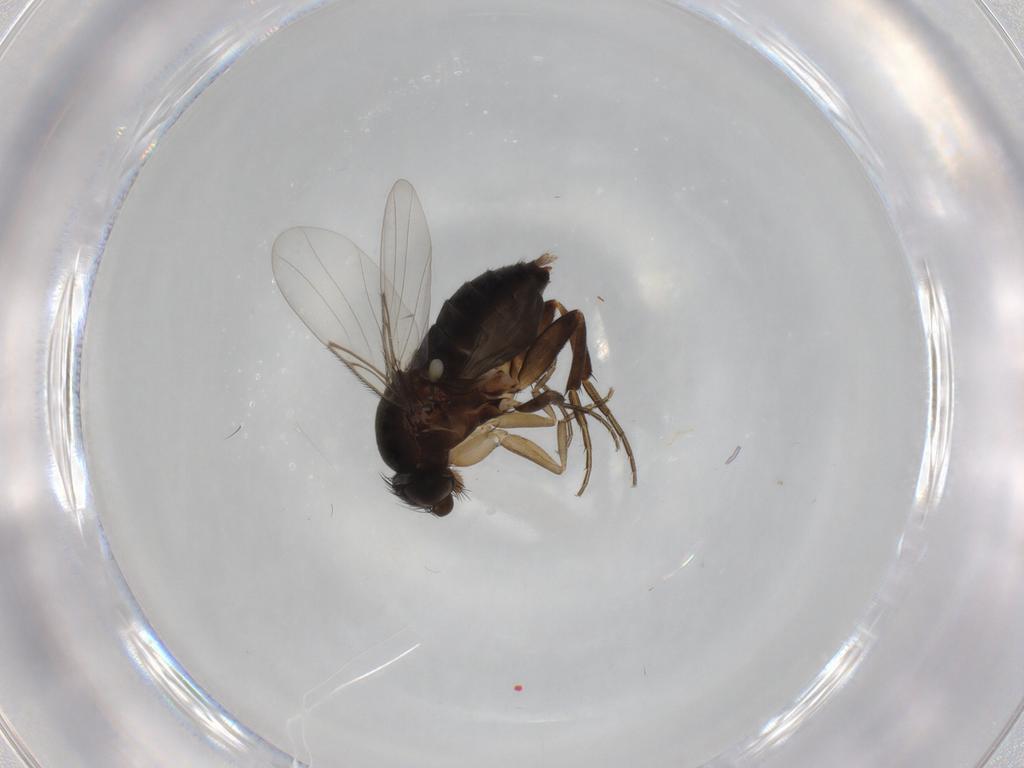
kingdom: Animalia
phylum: Arthropoda
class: Insecta
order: Diptera
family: Phoridae
